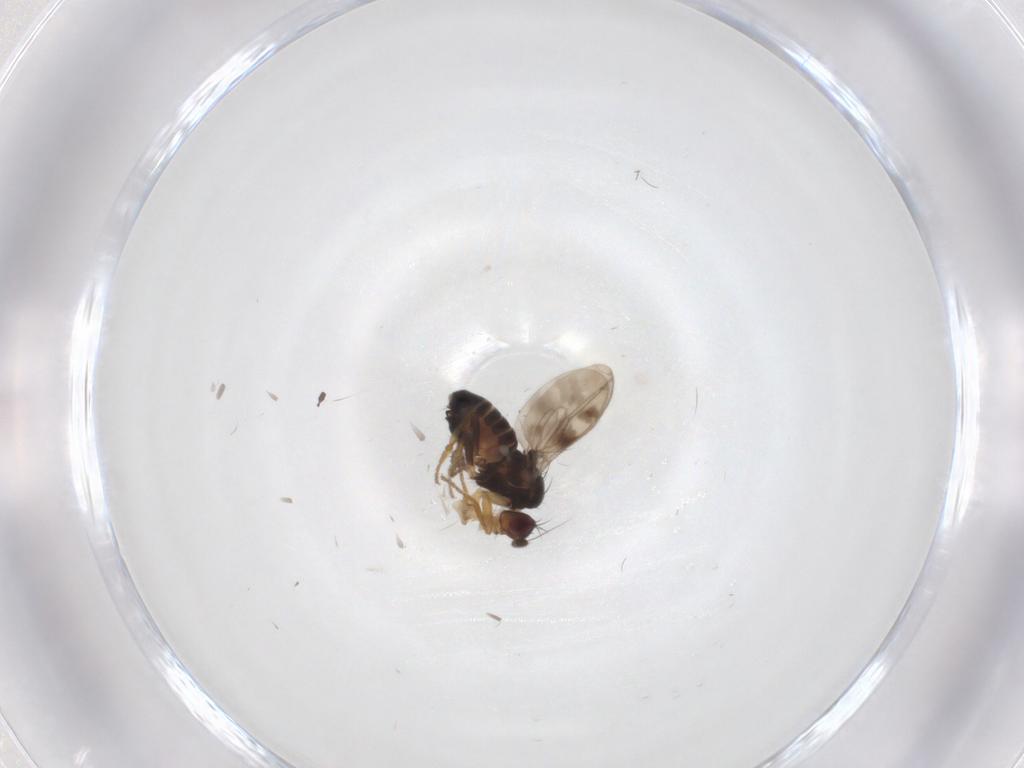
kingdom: Animalia
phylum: Arthropoda
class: Insecta
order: Diptera
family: Sphaeroceridae
